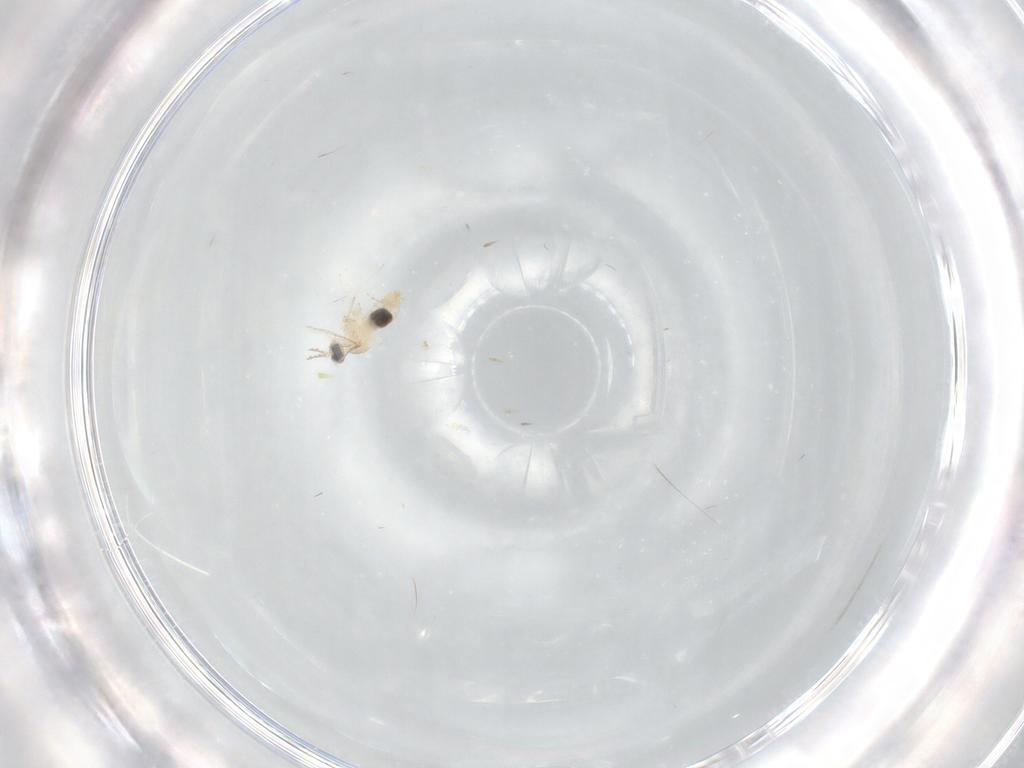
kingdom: Animalia
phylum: Arthropoda
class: Insecta
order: Diptera
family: Cecidomyiidae
